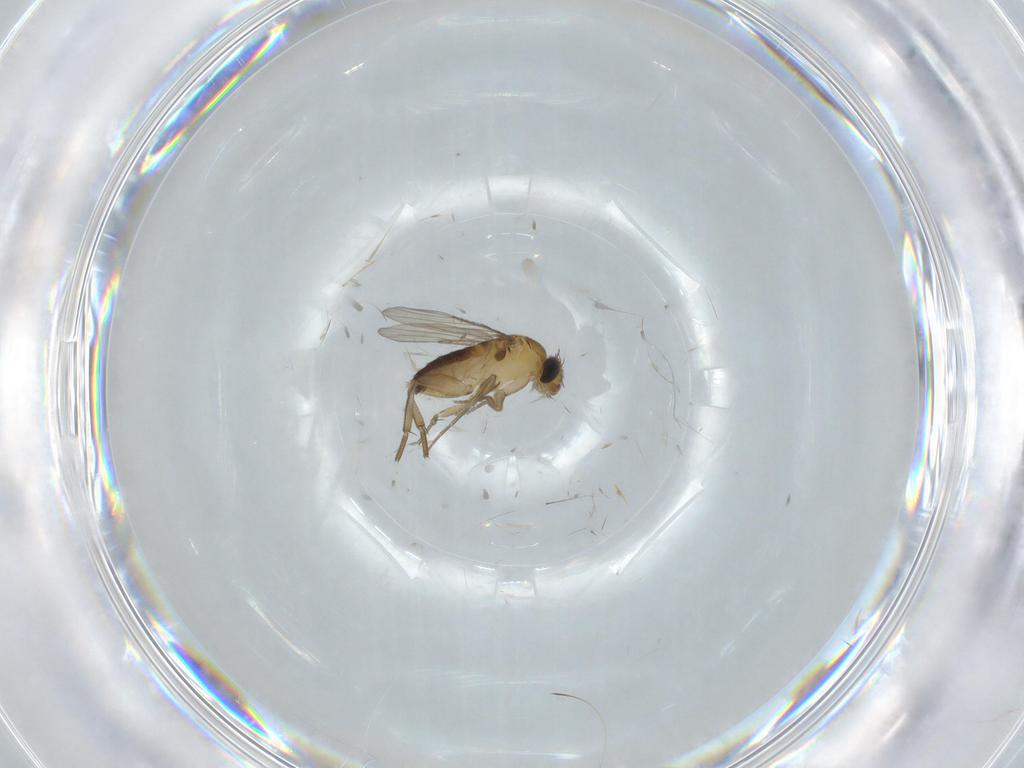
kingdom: Animalia
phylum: Arthropoda
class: Insecta
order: Diptera
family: Phoridae
